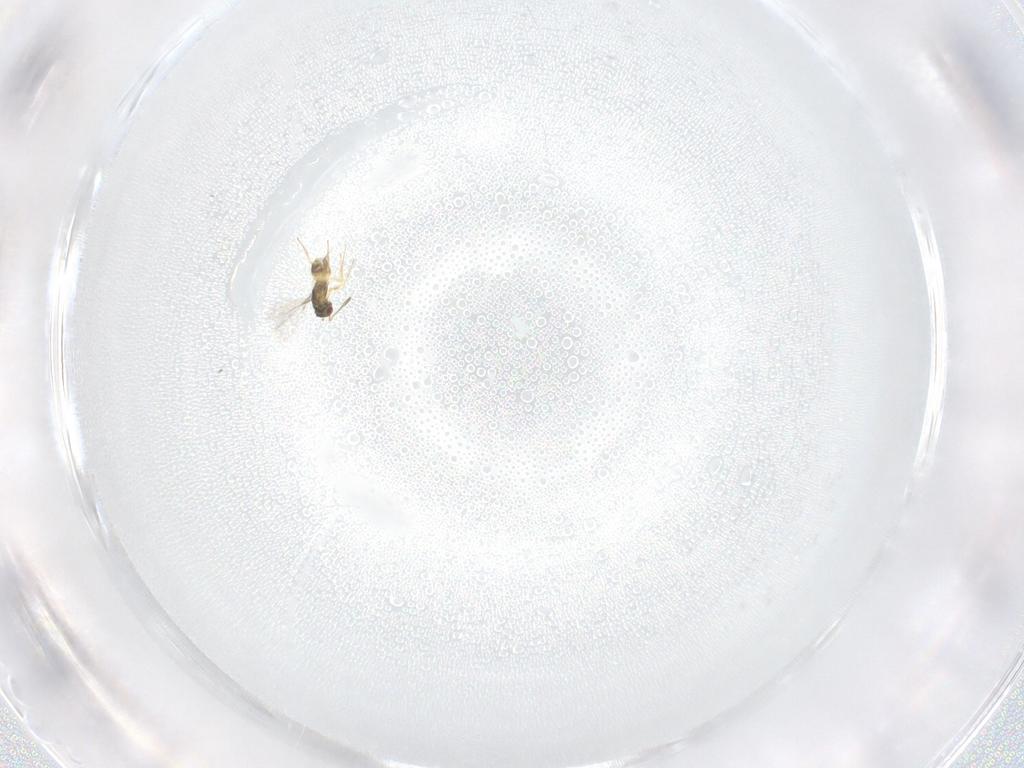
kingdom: Animalia
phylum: Arthropoda
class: Insecta
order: Hymenoptera
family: Mymaridae
